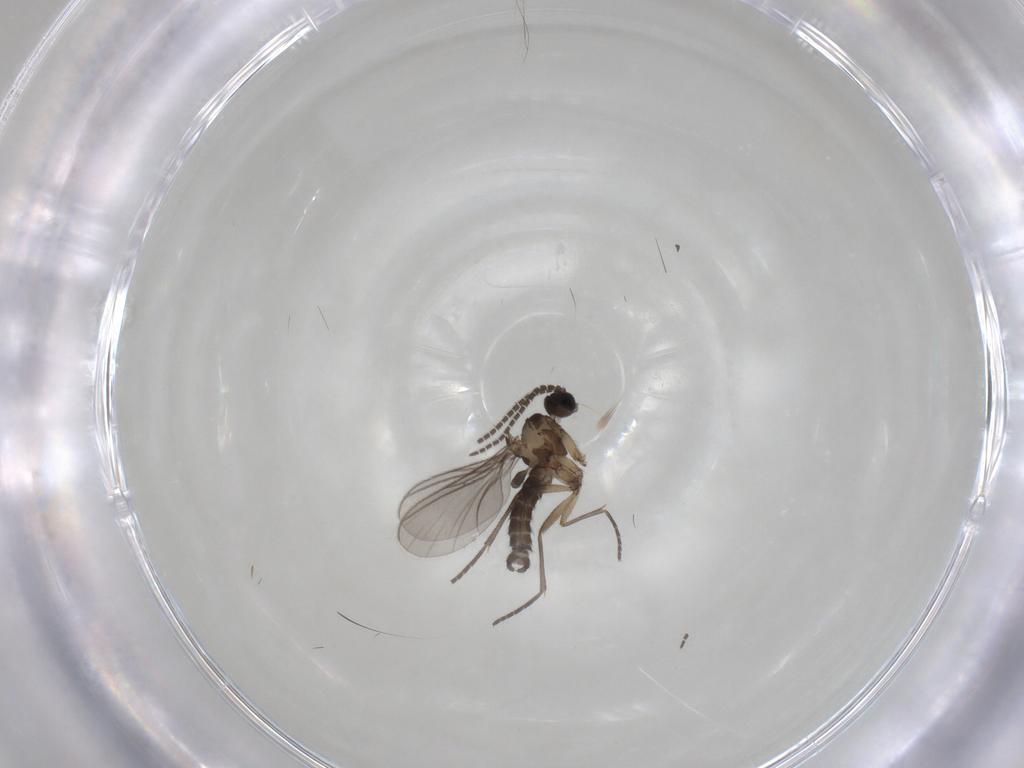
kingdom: Animalia
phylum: Arthropoda
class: Insecta
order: Diptera
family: Sciaridae
